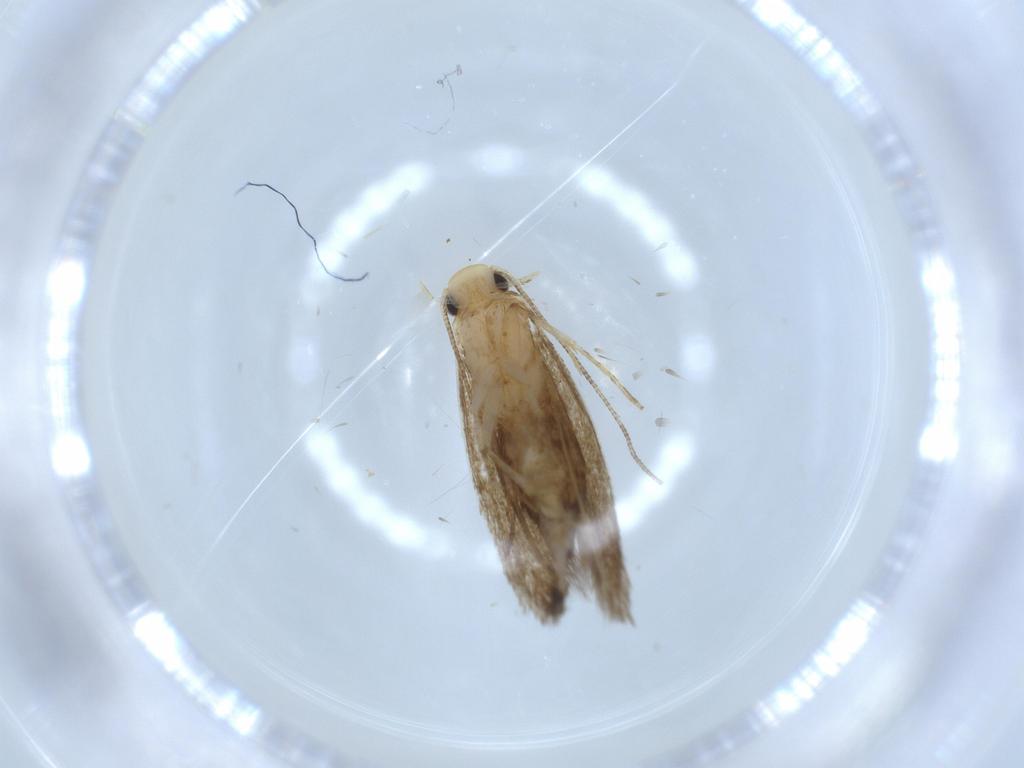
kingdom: Animalia
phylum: Arthropoda
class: Insecta
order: Lepidoptera
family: Tineidae
